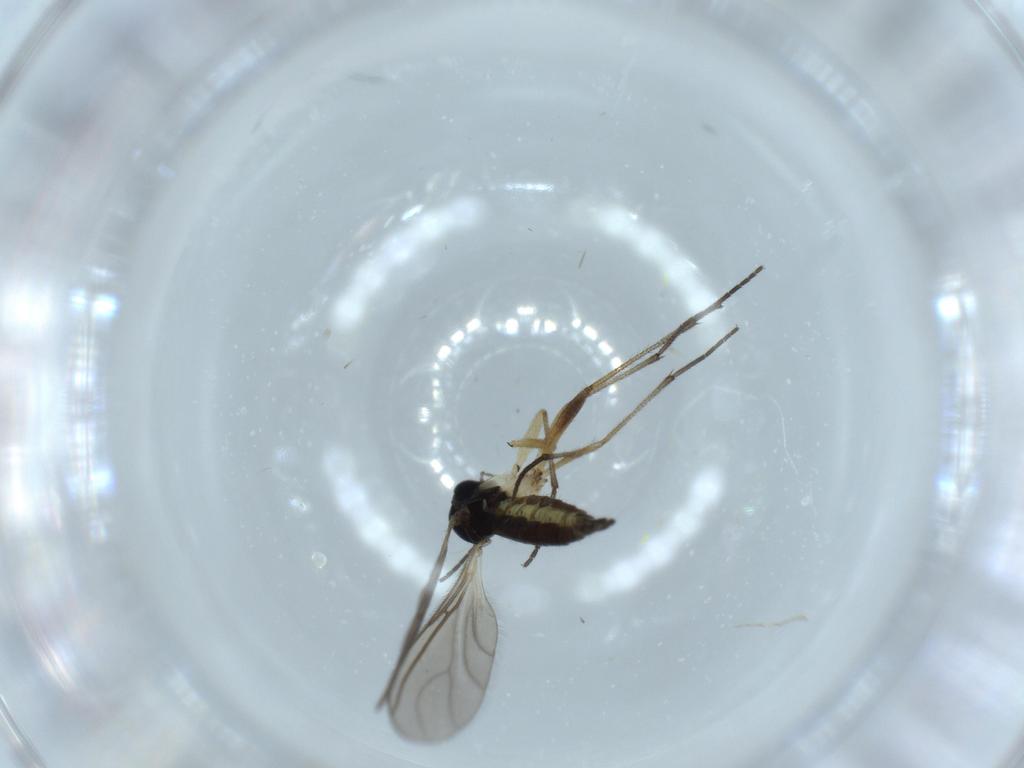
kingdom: Animalia
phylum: Arthropoda
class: Insecta
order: Diptera
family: Sciaridae
